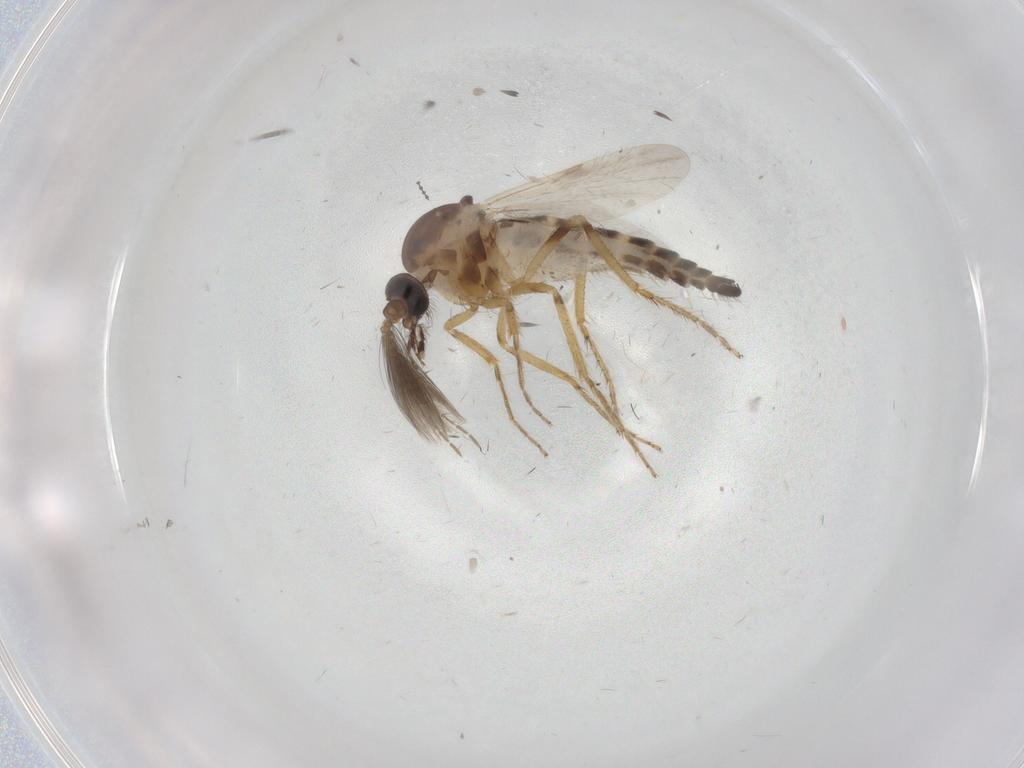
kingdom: Animalia
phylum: Arthropoda
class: Insecta
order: Diptera
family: Ceratopogonidae
